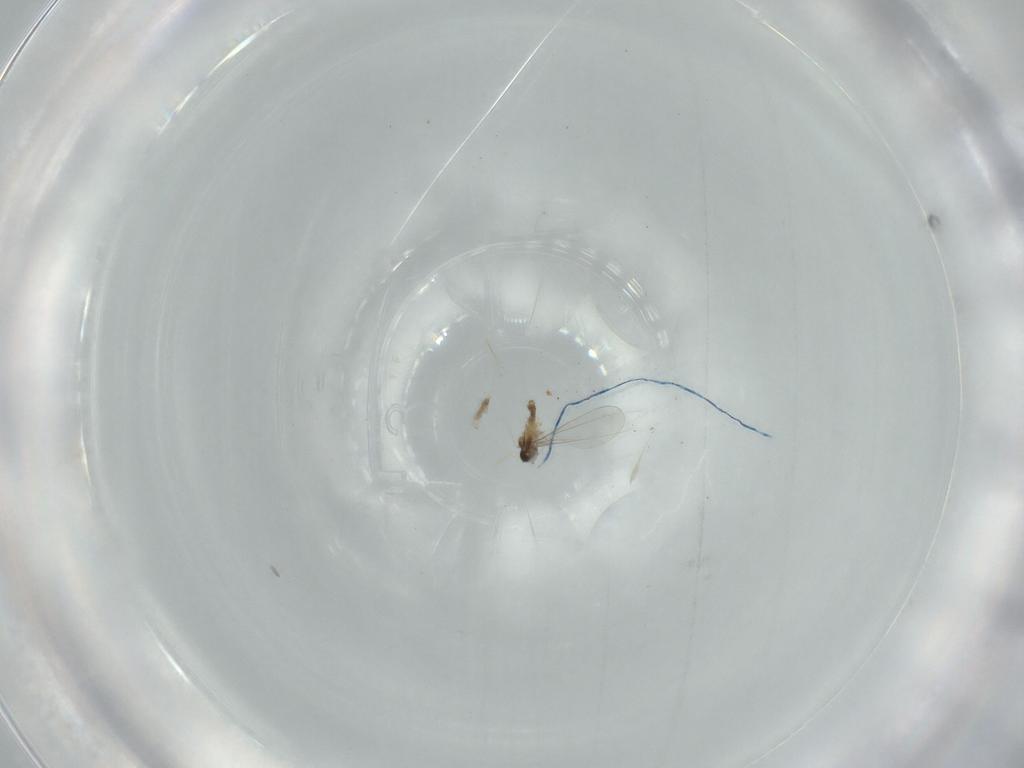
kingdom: Animalia
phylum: Arthropoda
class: Insecta
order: Diptera
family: Cecidomyiidae
